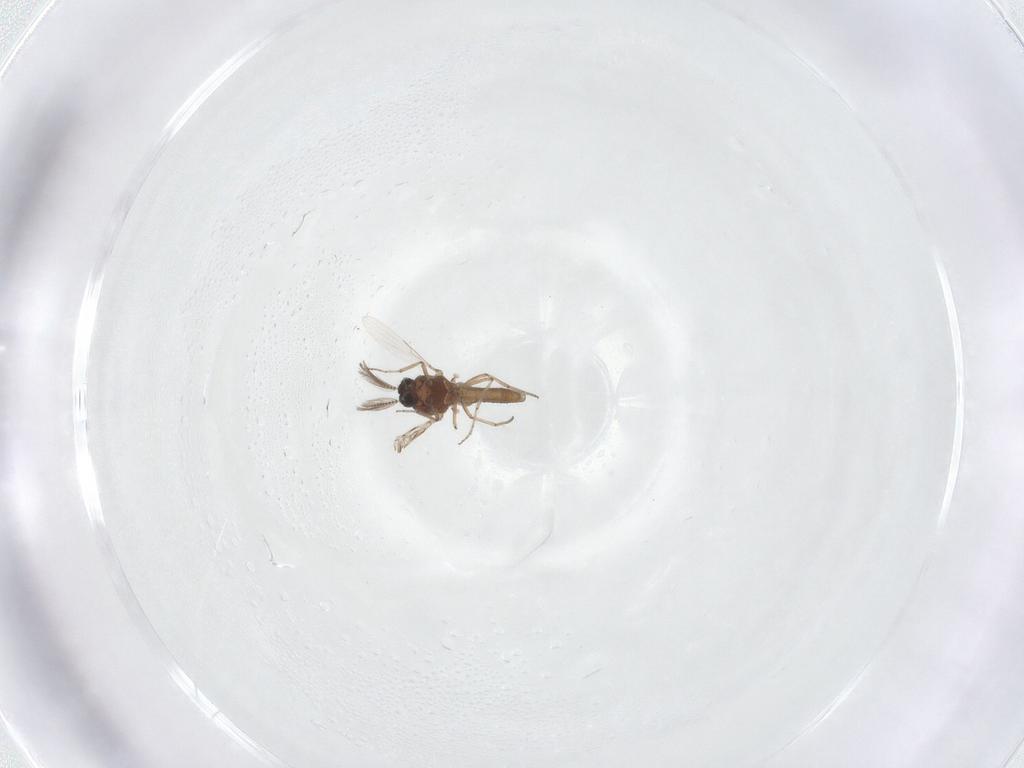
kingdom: Animalia
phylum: Arthropoda
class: Insecta
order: Diptera
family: Ceratopogonidae
